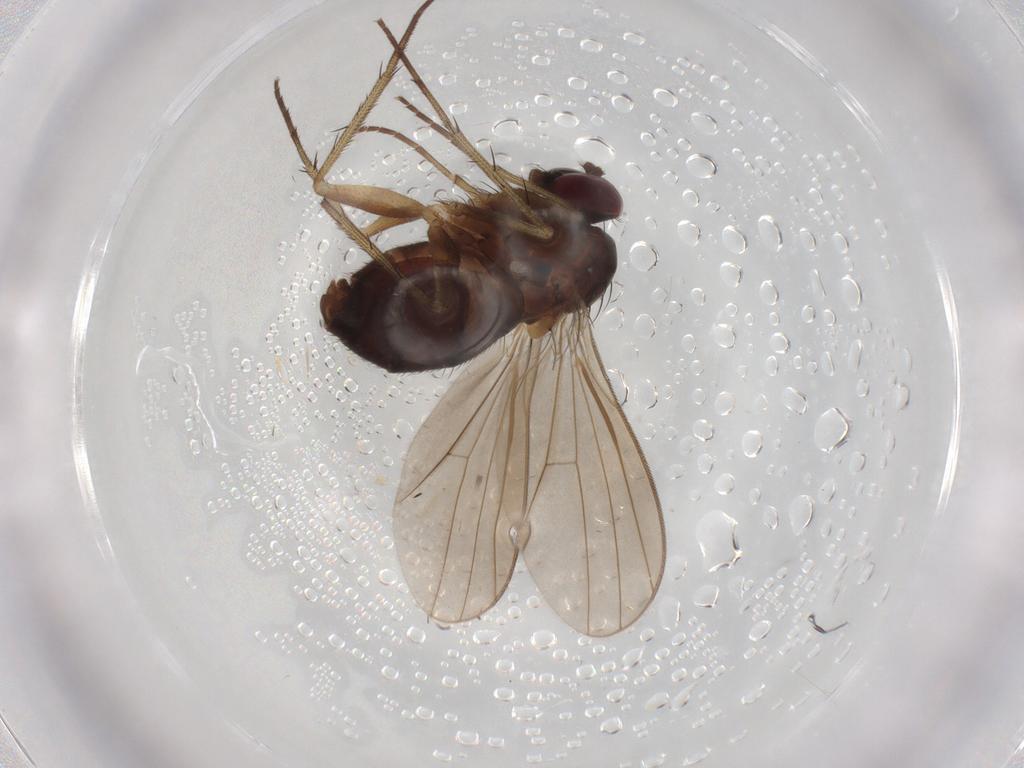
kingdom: Animalia
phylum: Arthropoda
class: Insecta
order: Diptera
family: Dolichopodidae
